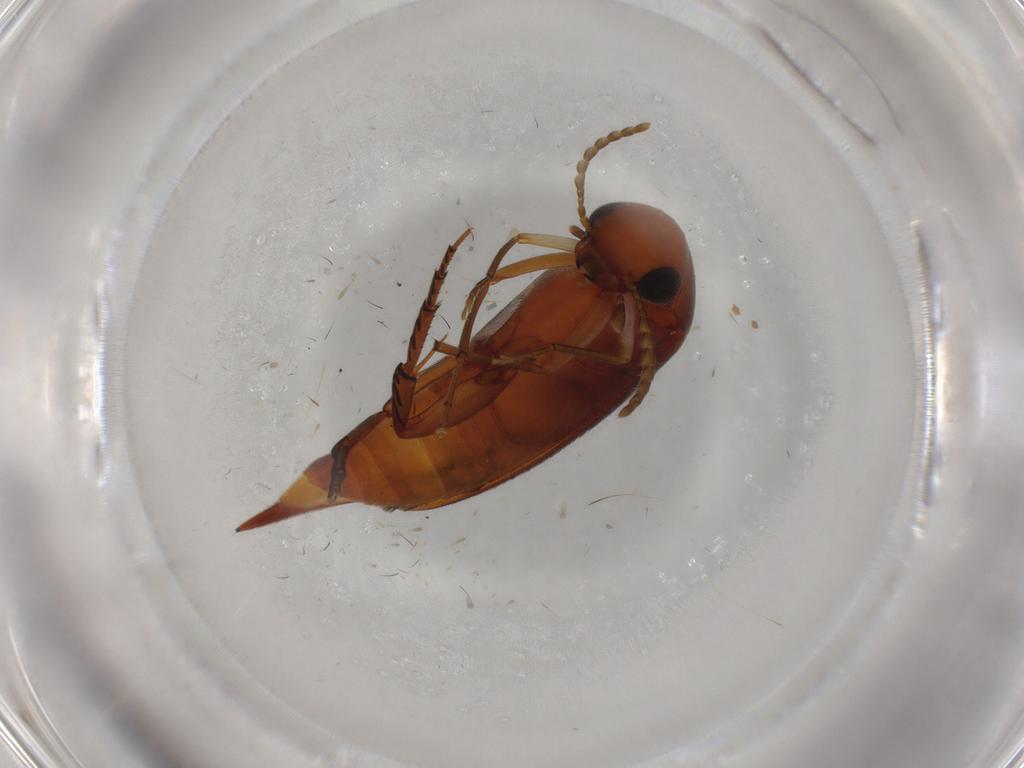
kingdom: Animalia
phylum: Arthropoda
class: Insecta
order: Coleoptera
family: Mordellidae
